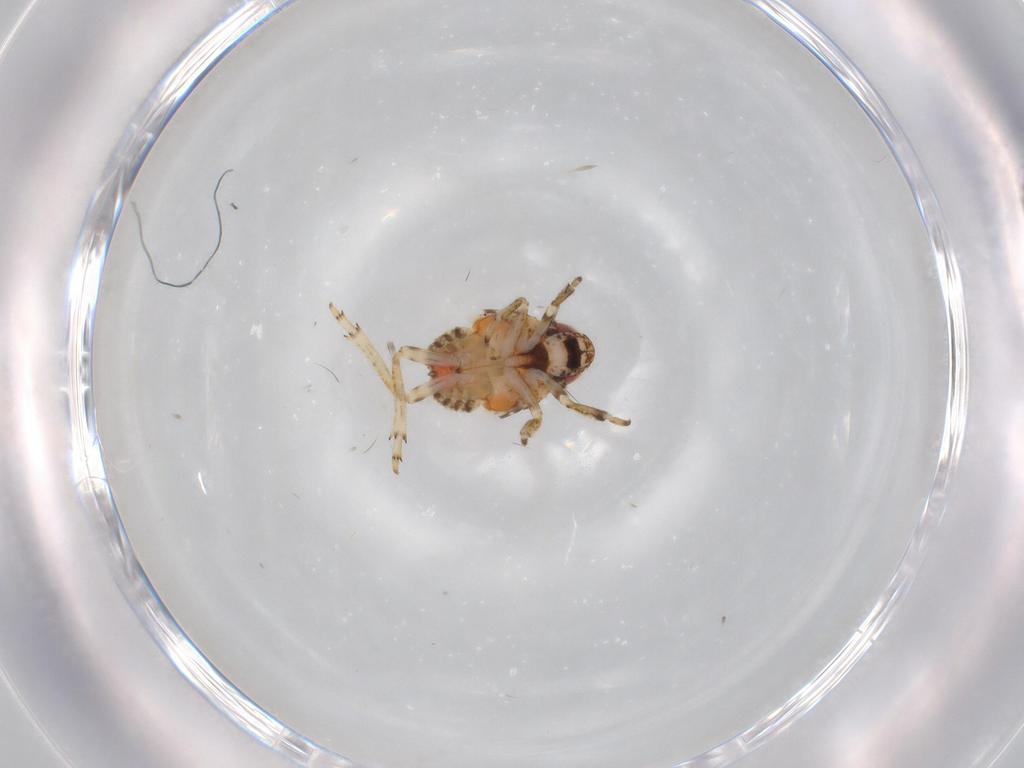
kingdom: Animalia
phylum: Arthropoda
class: Insecta
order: Hemiptera
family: Issidae
